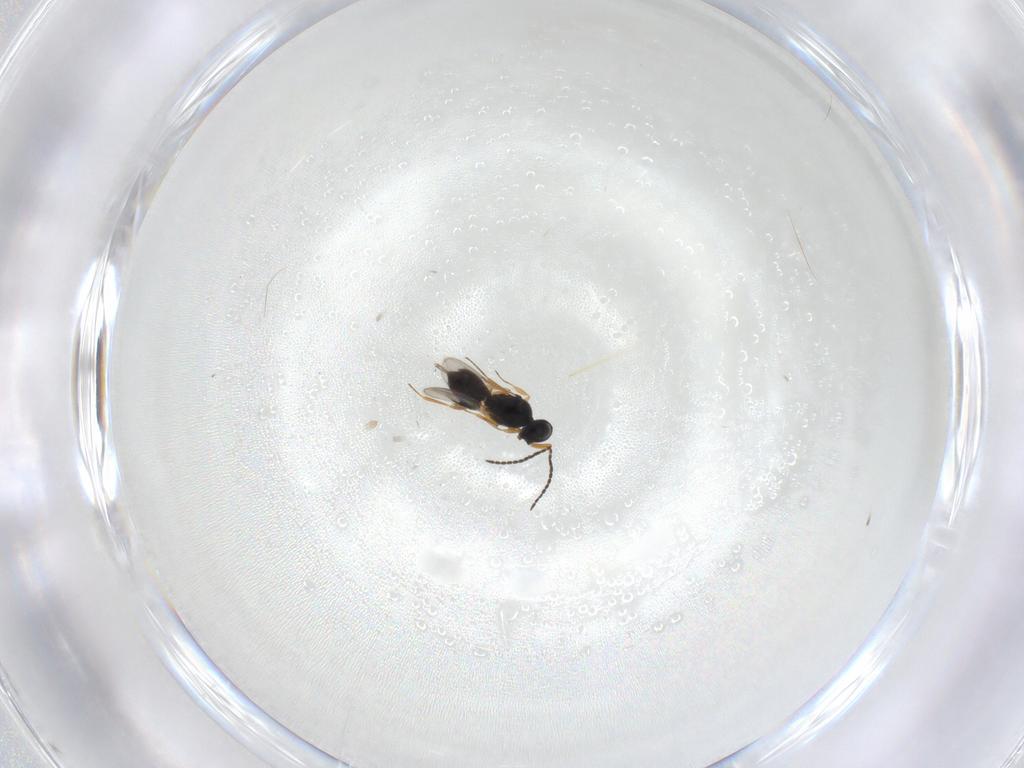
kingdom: Animalia
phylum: Arthropoda
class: Insecta
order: Hymenoptera
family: Scelionidae
